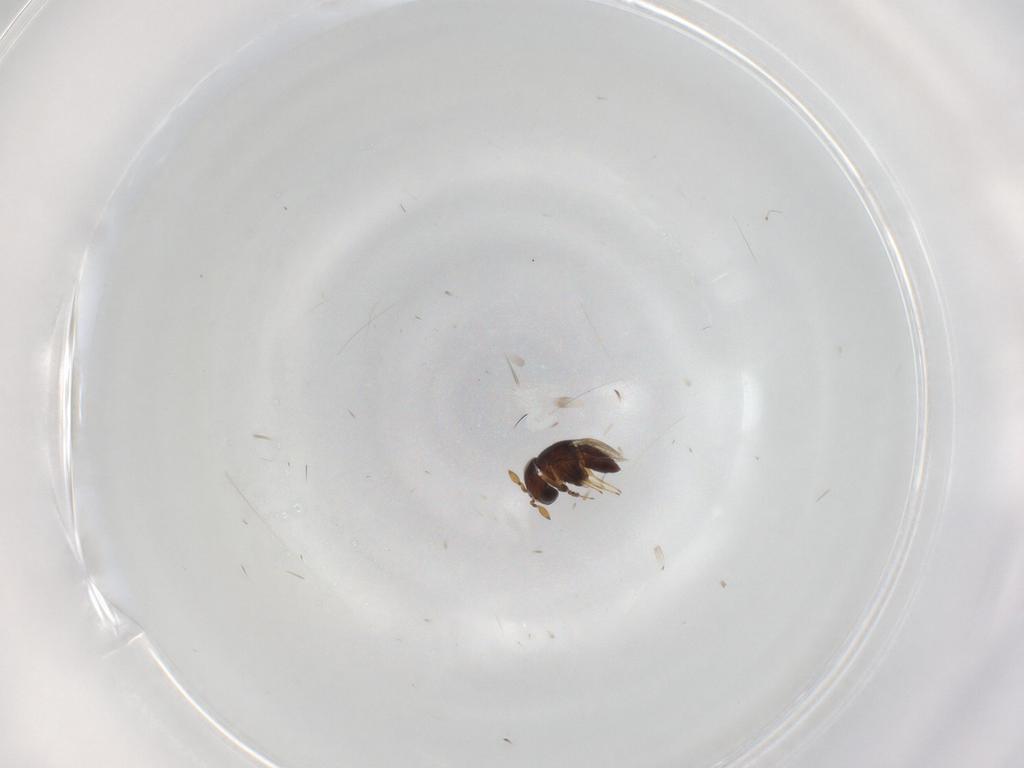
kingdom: Animalia
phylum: Arthropoda
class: Insecta
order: Hymenoptera
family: Scelionidae
